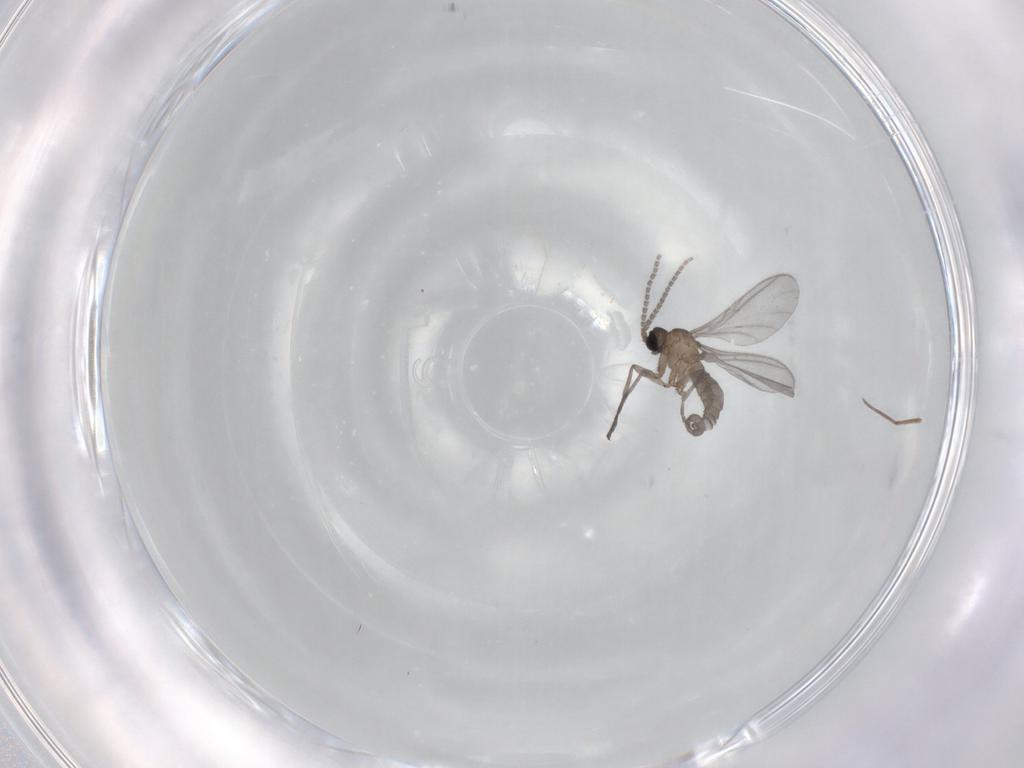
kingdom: Animalia
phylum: Arthropoda
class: Insecta
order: Diptera
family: Sciaridae
